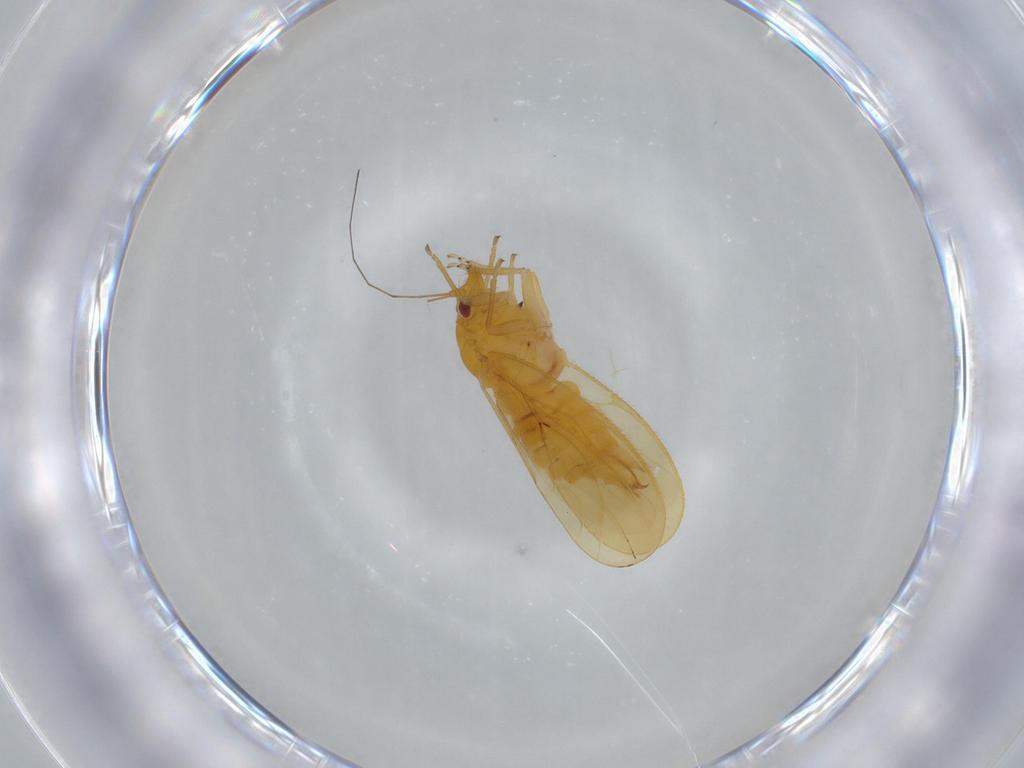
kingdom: Animalia
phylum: Arthropoda
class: Insecta
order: Hemiptera
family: Psyllidae
